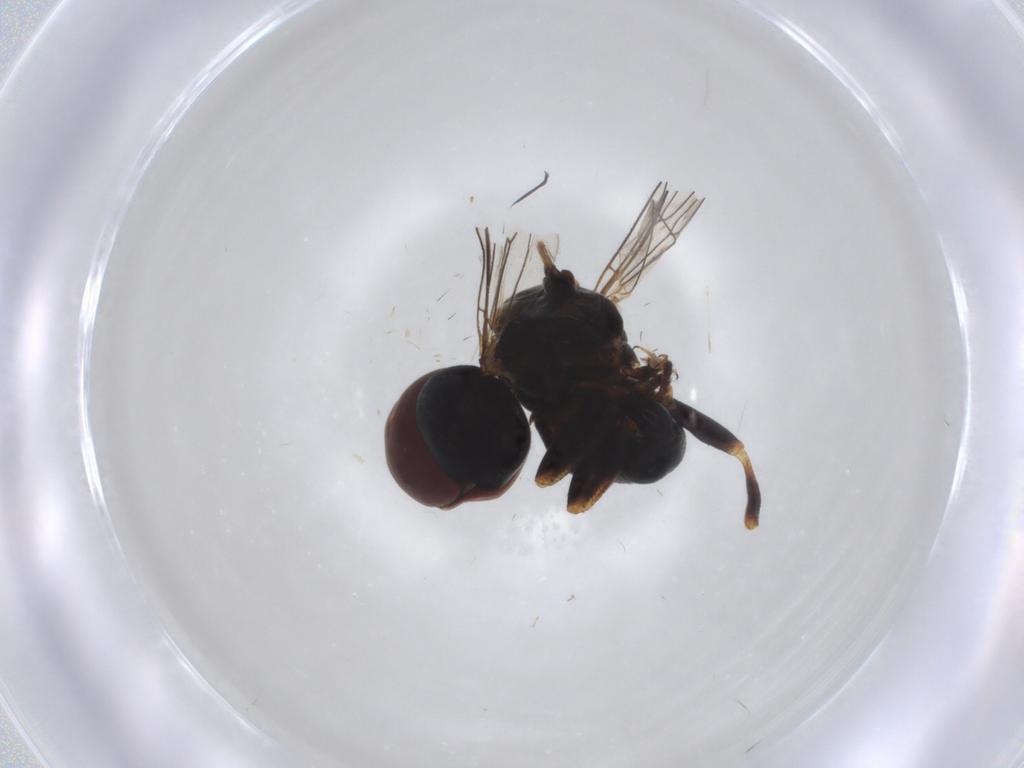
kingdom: Animalia
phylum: Arthropoda
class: Insecta
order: Diptera
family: Pipunculidae
